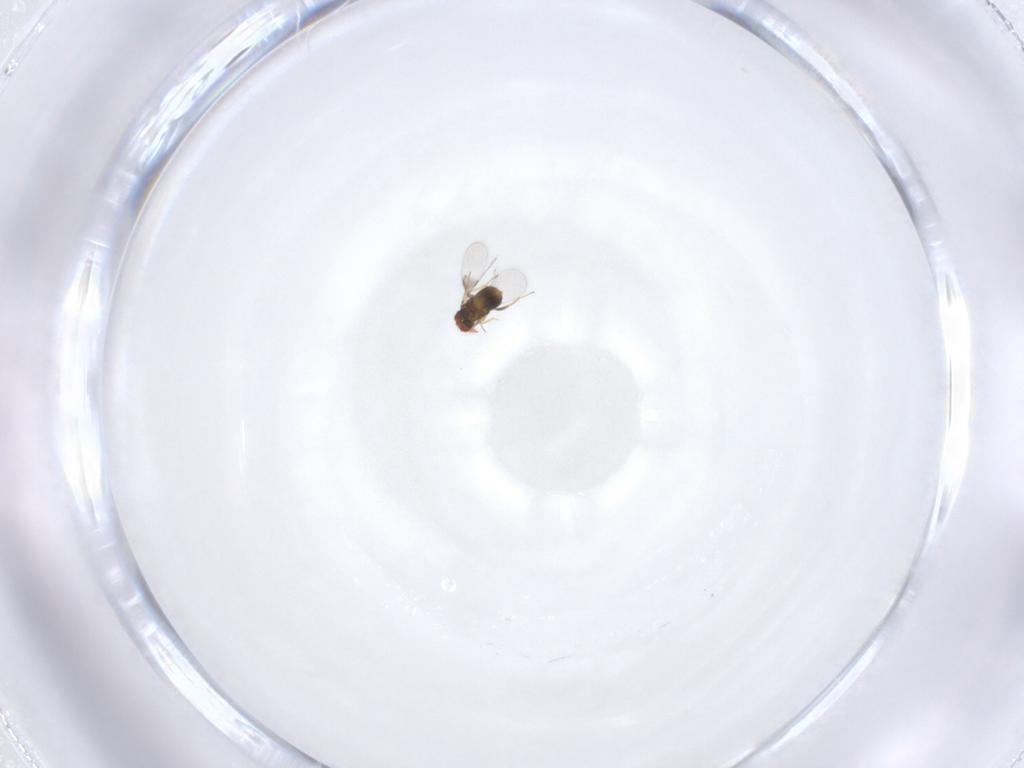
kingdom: Animalia
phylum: Arthropoda
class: Insecta
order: Hymenoptera
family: Trichogrammatidae
